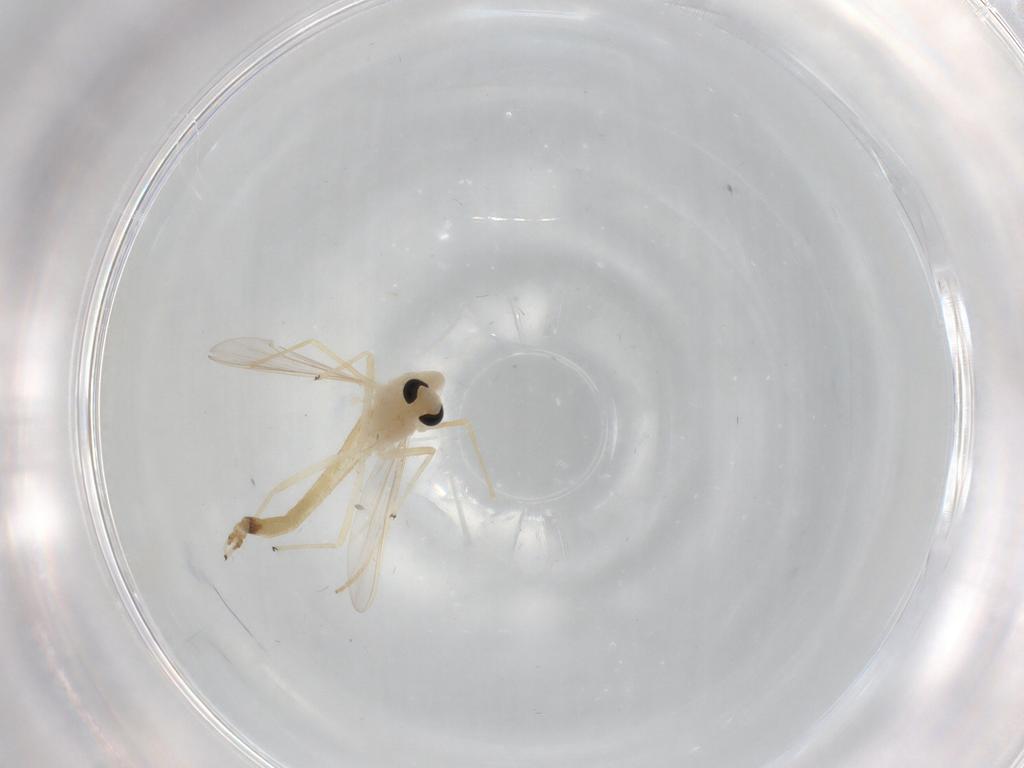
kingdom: Animalia
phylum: Arthropoda
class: Insecta
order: Diptera
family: Chironomidae
